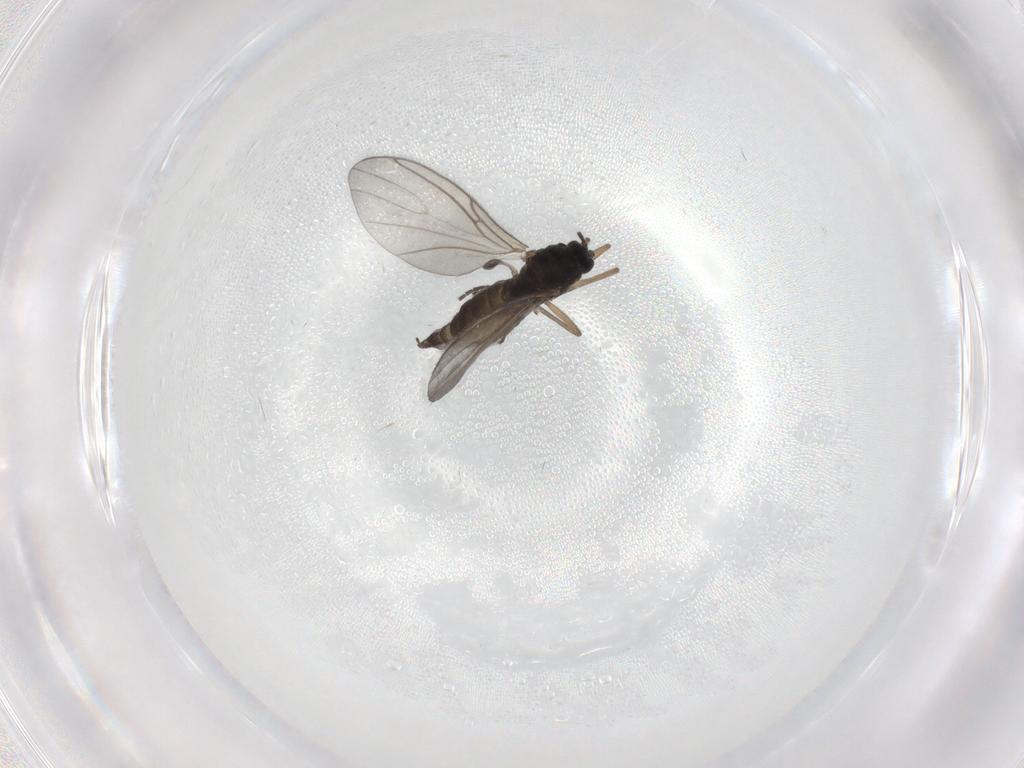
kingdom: Animalia
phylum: Arthropoda
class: Insecta
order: Diptera
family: Sciaridae
